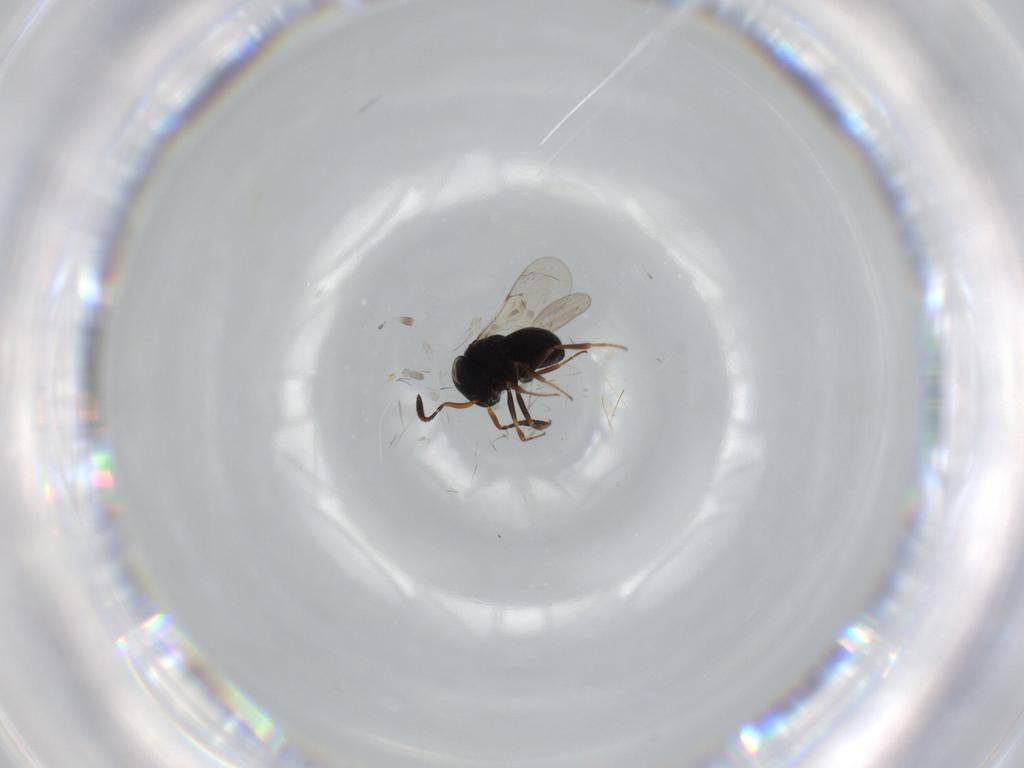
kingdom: Animalia
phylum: Arthropoda
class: Insecta
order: Hymenoptera
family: Scelionidae
